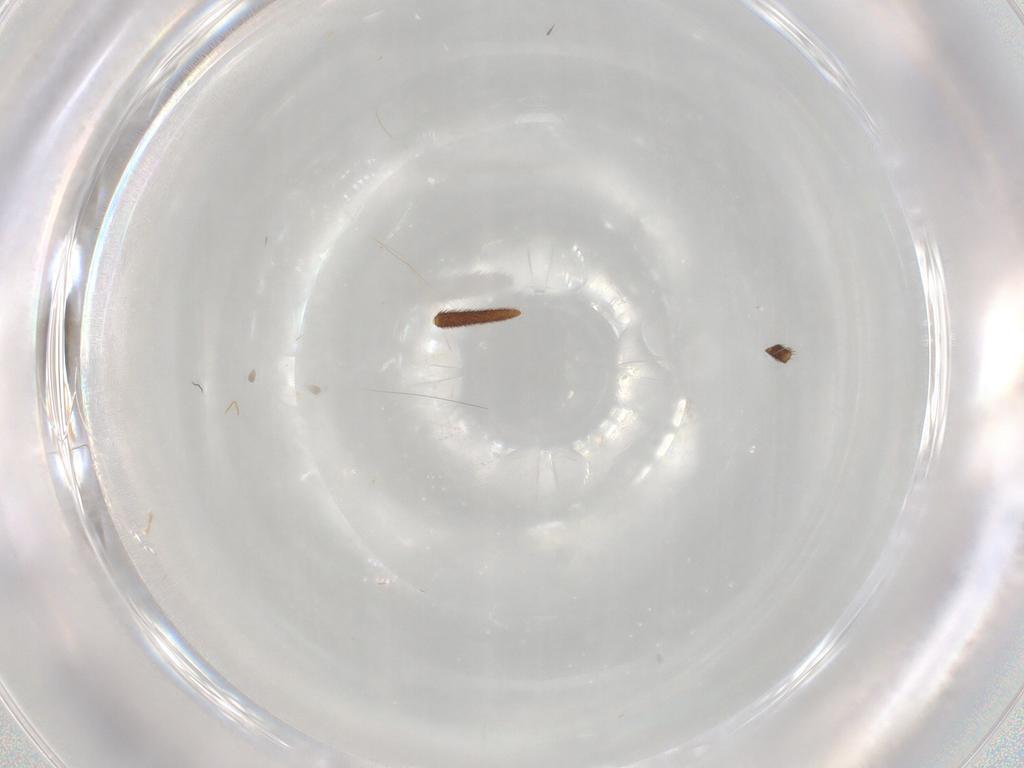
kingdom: Animalia
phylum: Arthropoda
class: Insecta
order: Hymenoptera
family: Formicidae
